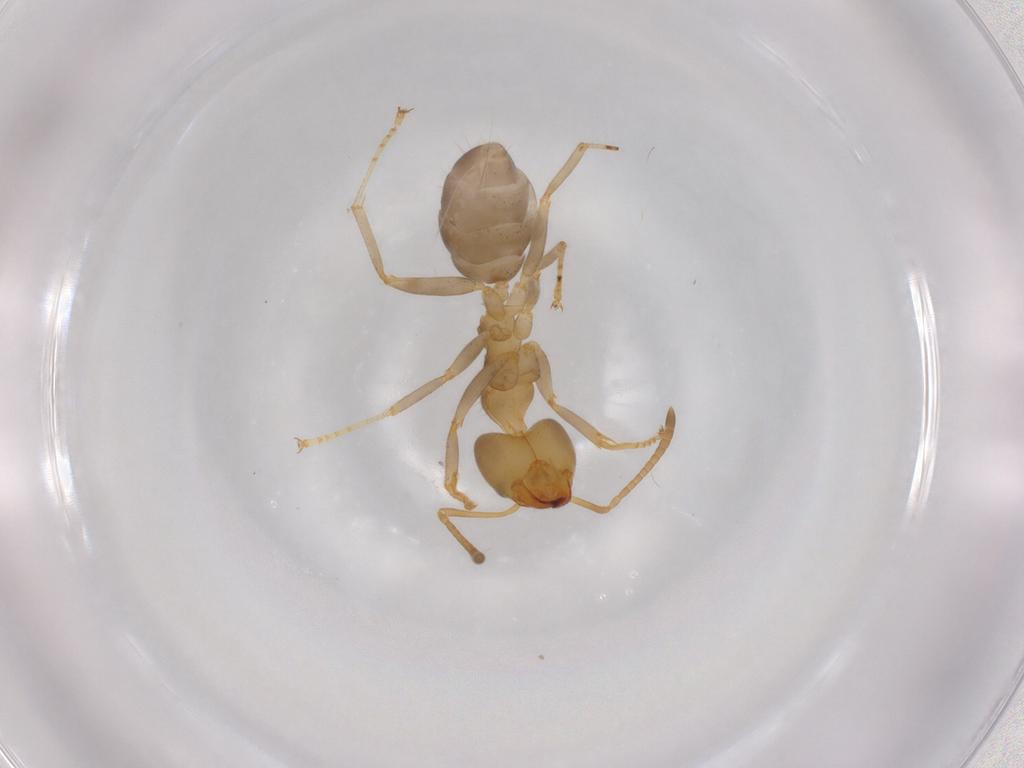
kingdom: Animalia
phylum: Arthropoda
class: Insecta
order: Hymenoptera
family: Formicidae
